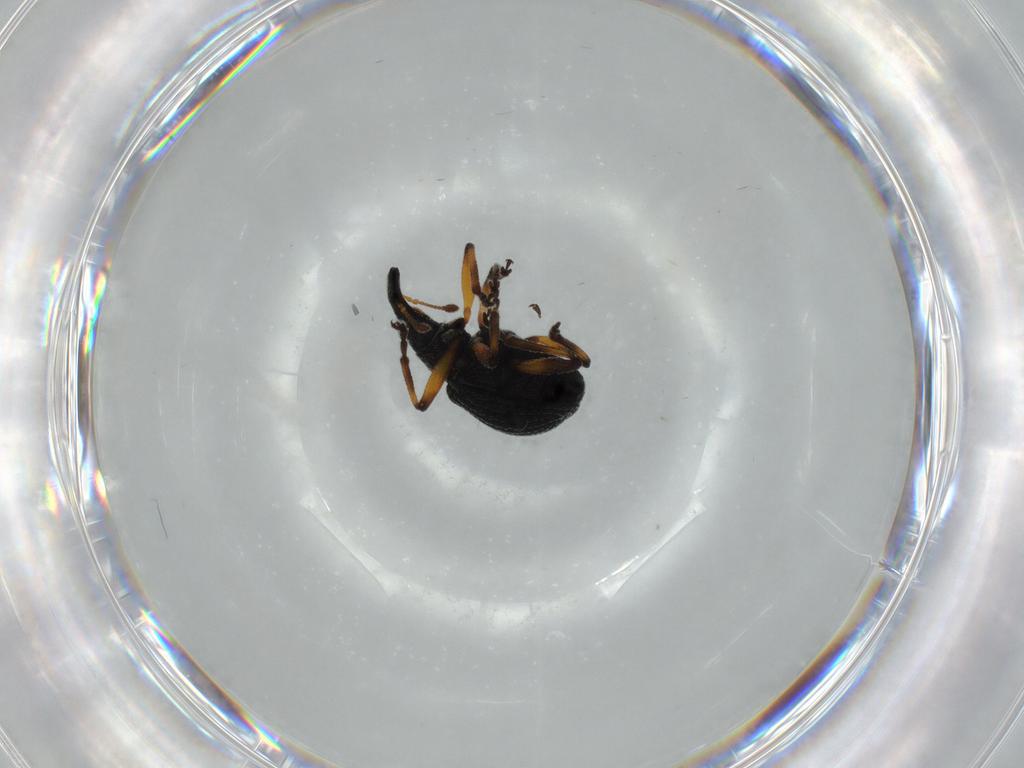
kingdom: Animalia
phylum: Arthropoda
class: Insecta
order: Coleoptera
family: Brentidae
